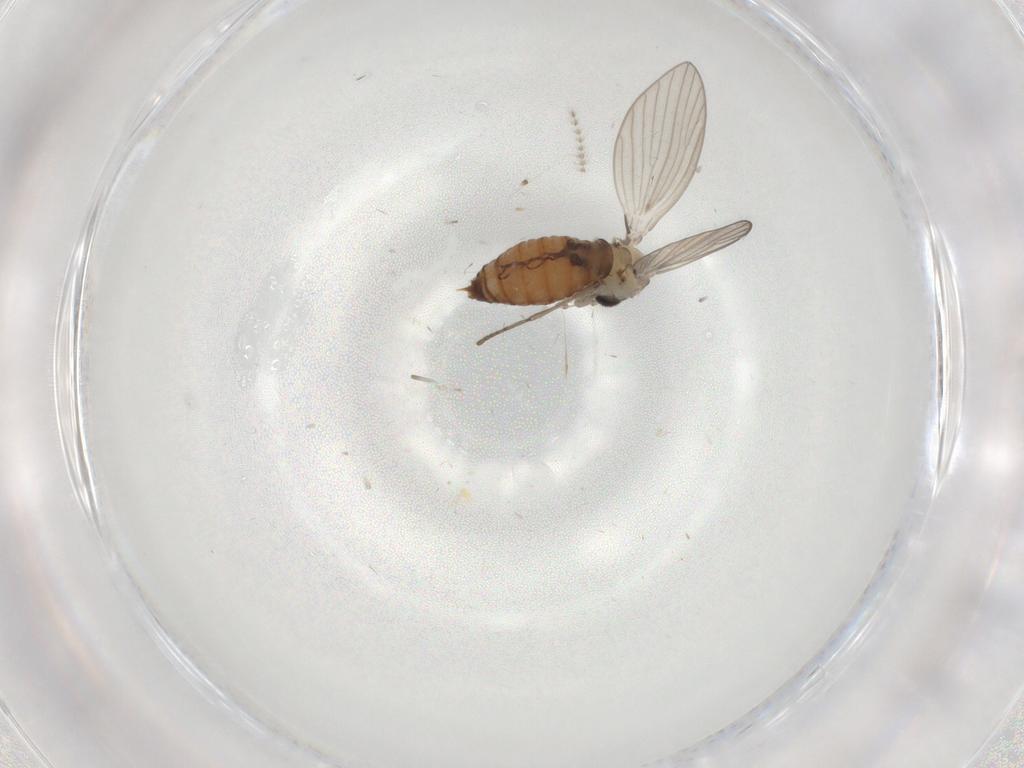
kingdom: Animalia
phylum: Arthropoda
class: Insecta
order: Diptera
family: Psychodidae
